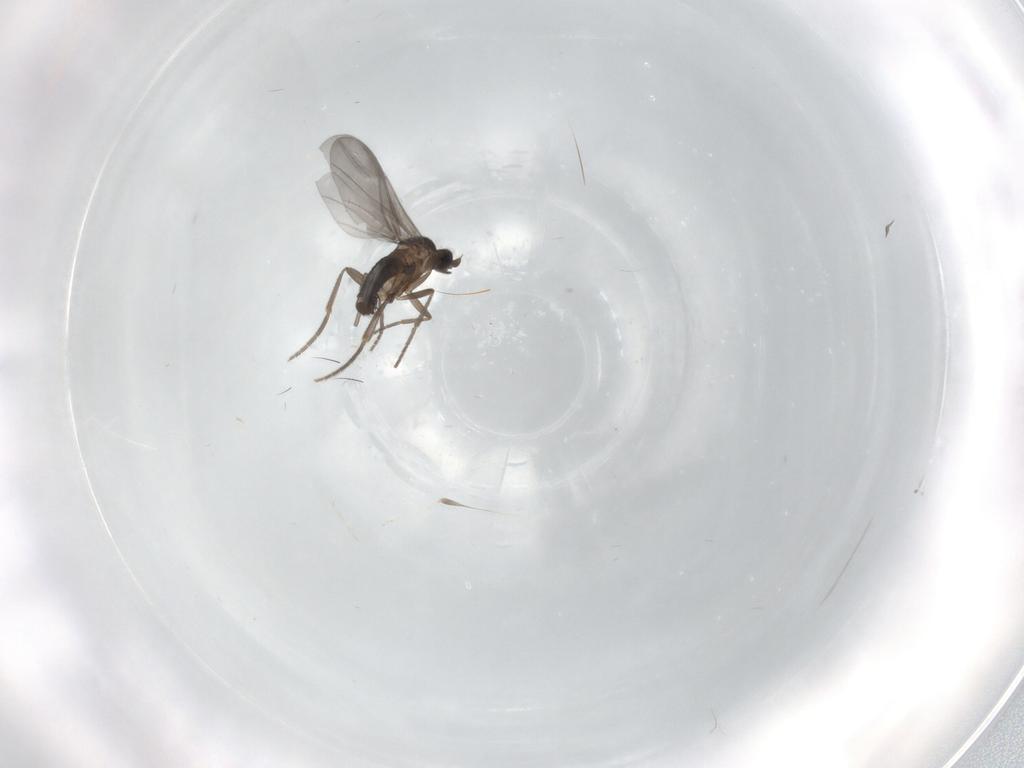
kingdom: Animalia
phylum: Arthropoda
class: Insecta
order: Diptera
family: Phoridae
